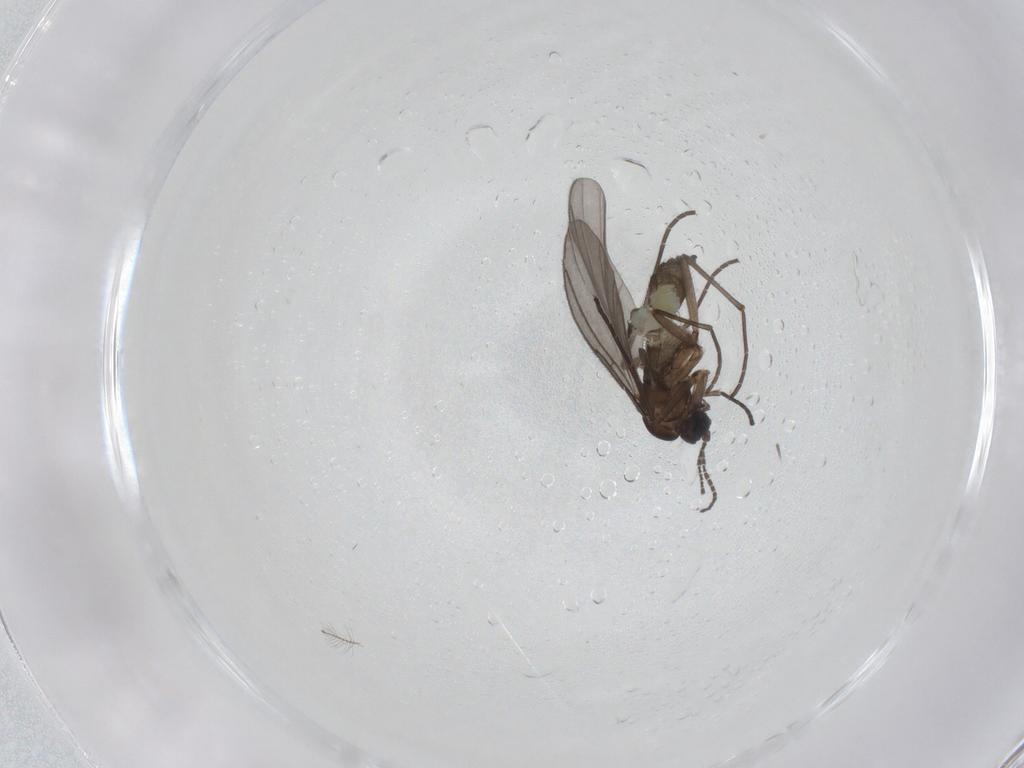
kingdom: Animalia
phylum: Arthropoda
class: Insecta
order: Diptera
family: Sciaridae
